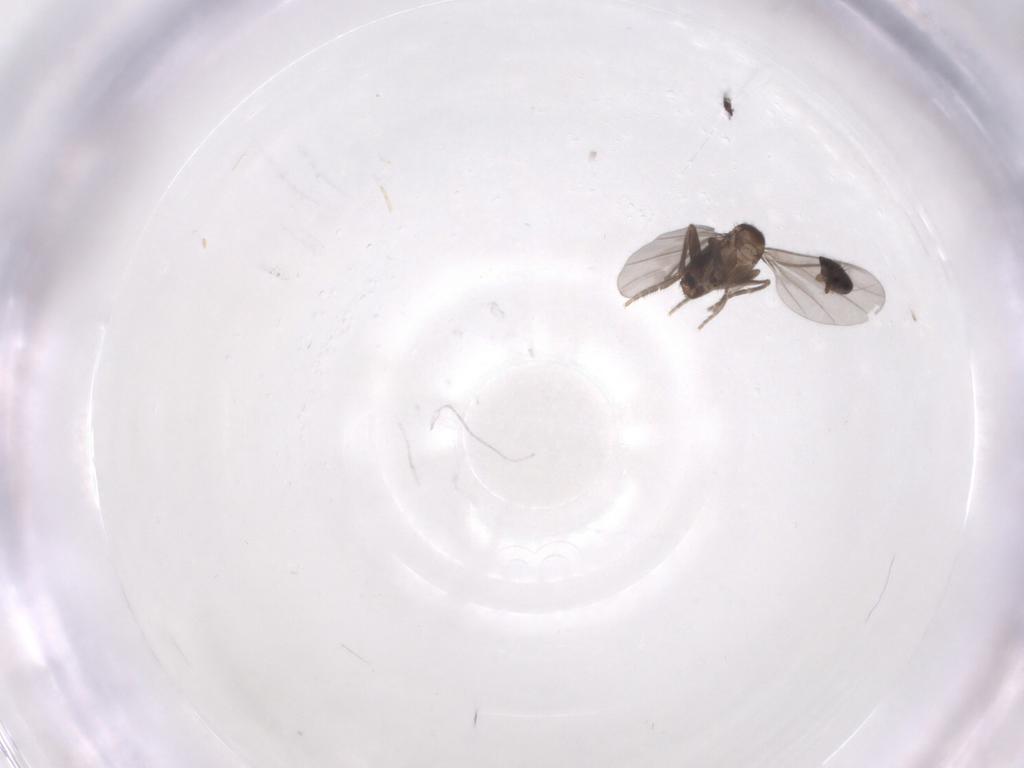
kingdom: Animalia
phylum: Arthropoda
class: Insecta
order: Diptera
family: Phoridae
